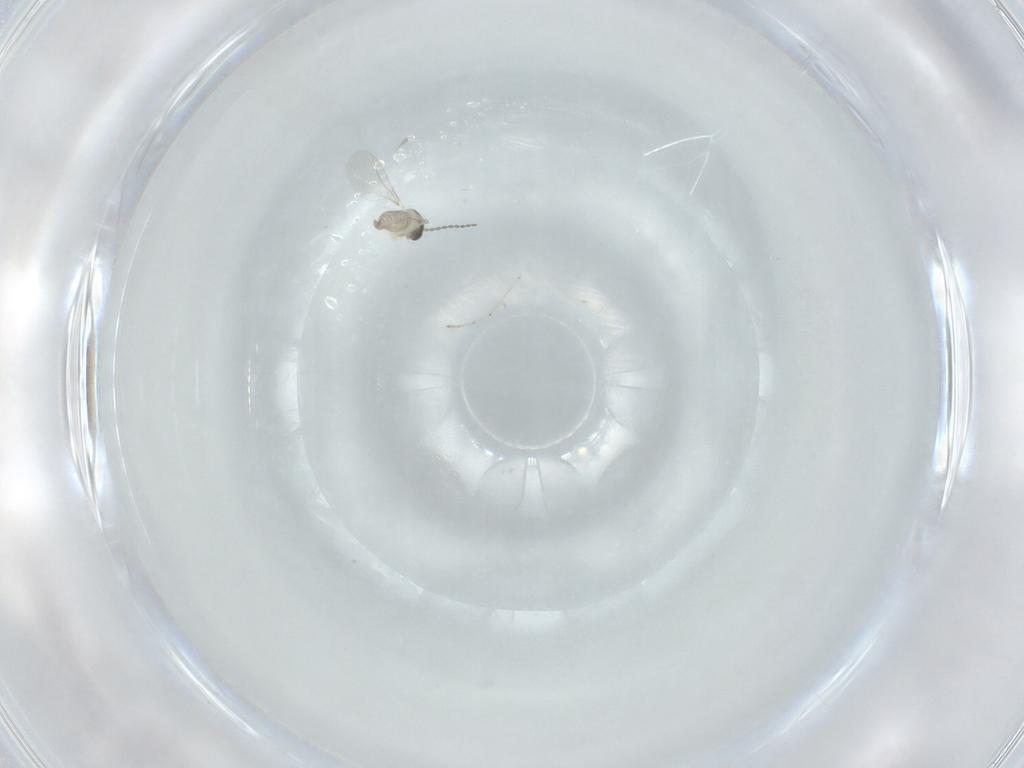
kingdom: Animalia
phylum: Arthropoda
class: Insecta
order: Diptera
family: Cecidomyiidae
